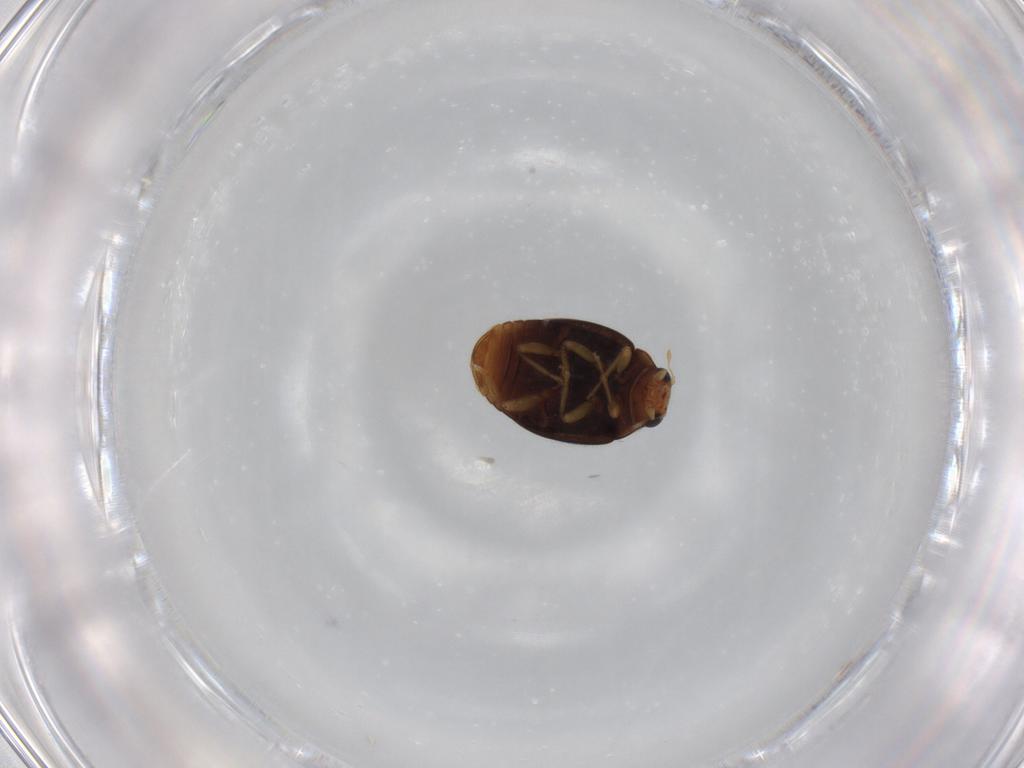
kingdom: Animalia
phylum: Arthropoda
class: Insecta
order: Coleoptera
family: Coccinellidae
